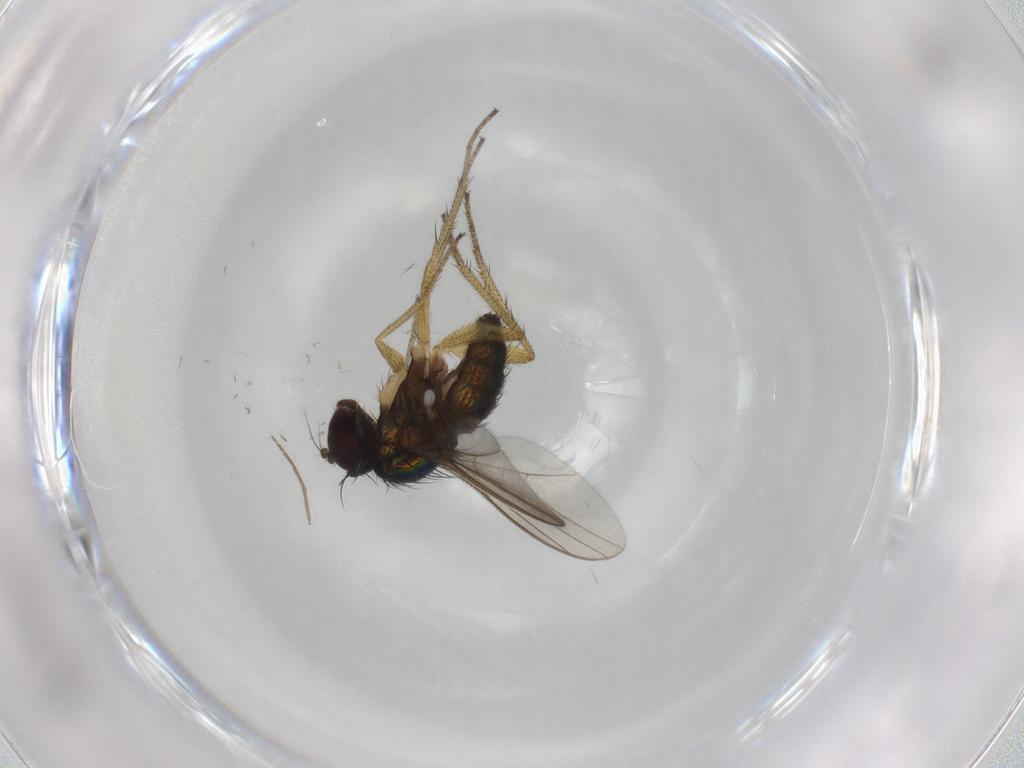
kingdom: Animalia
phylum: Arthropoda
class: Insecta
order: Diptera
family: Chironomidae
